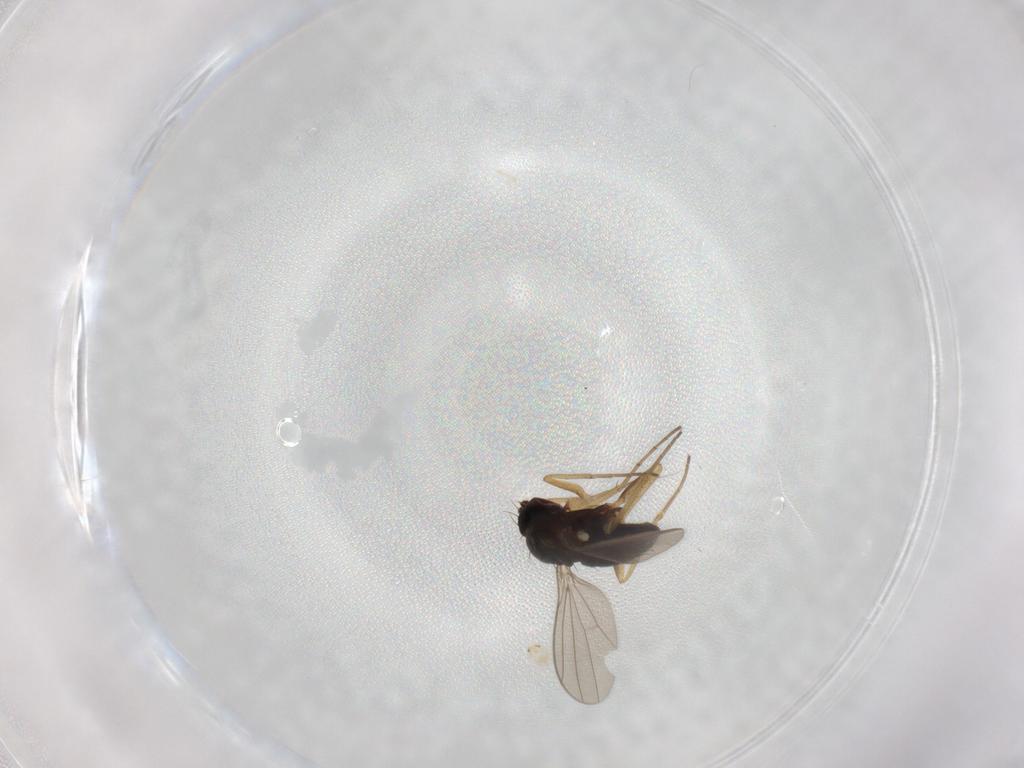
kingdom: Animalia
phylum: Arthropoda
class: Insecta
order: Diptera
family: Dolichopodidae
